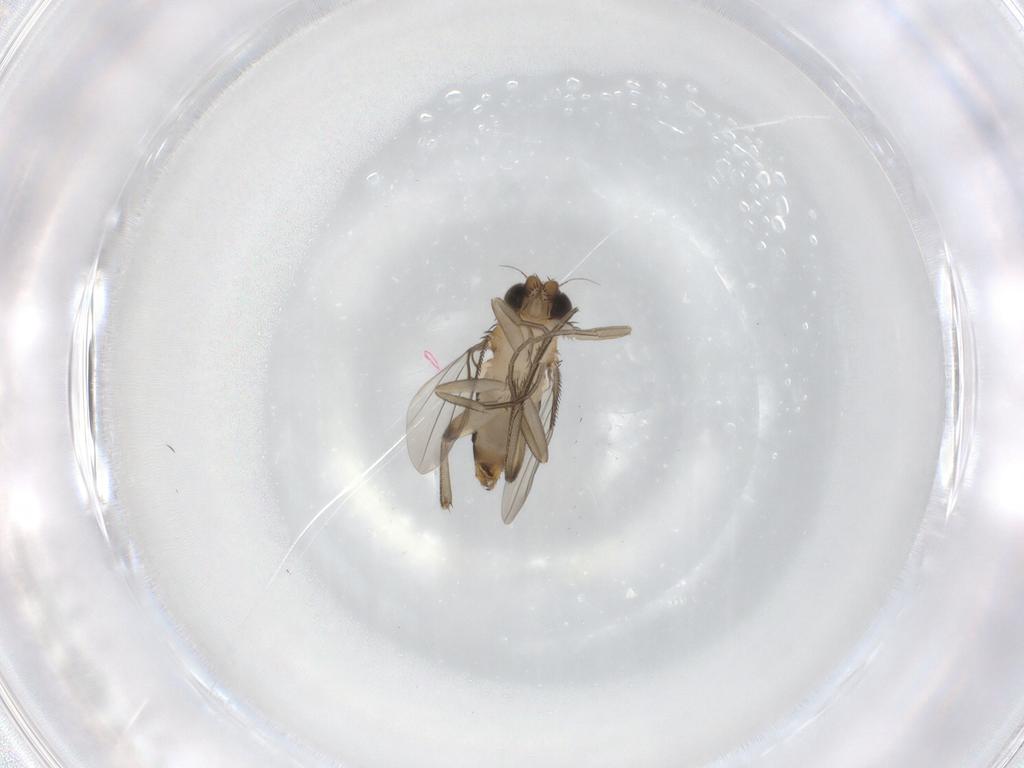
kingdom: Animalia
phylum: Arthropoda
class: Insecta
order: Diptera
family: Phoridae
